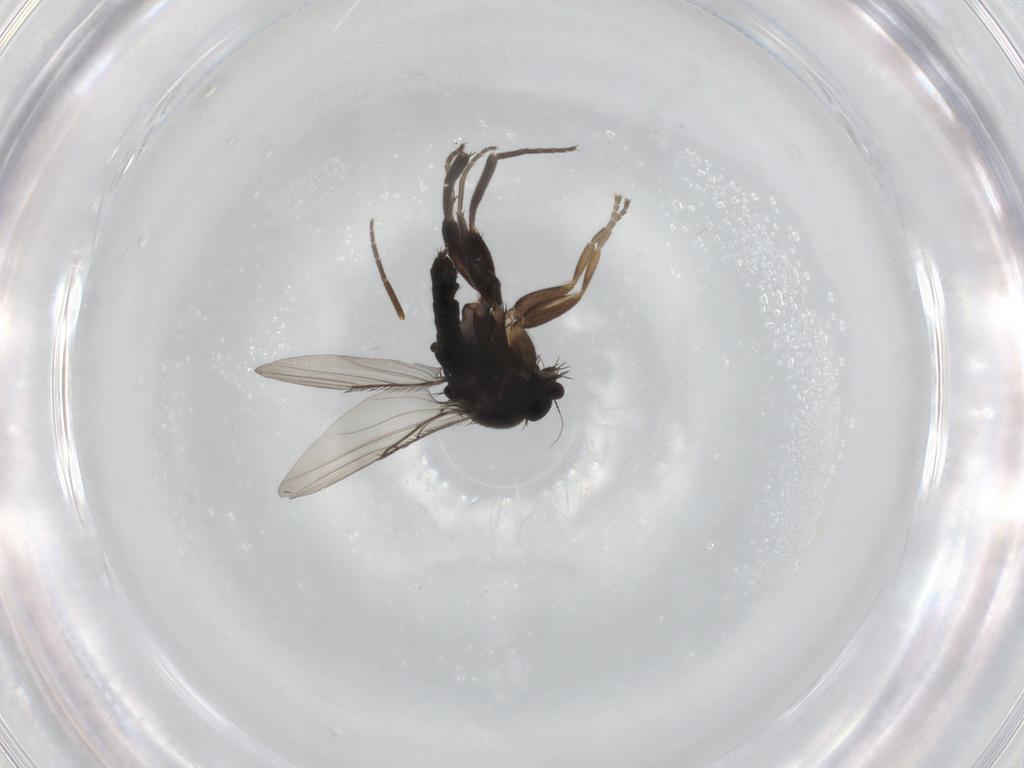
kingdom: Animalia
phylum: Arthropoda
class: Insecta
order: Diptera
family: Phoridae
